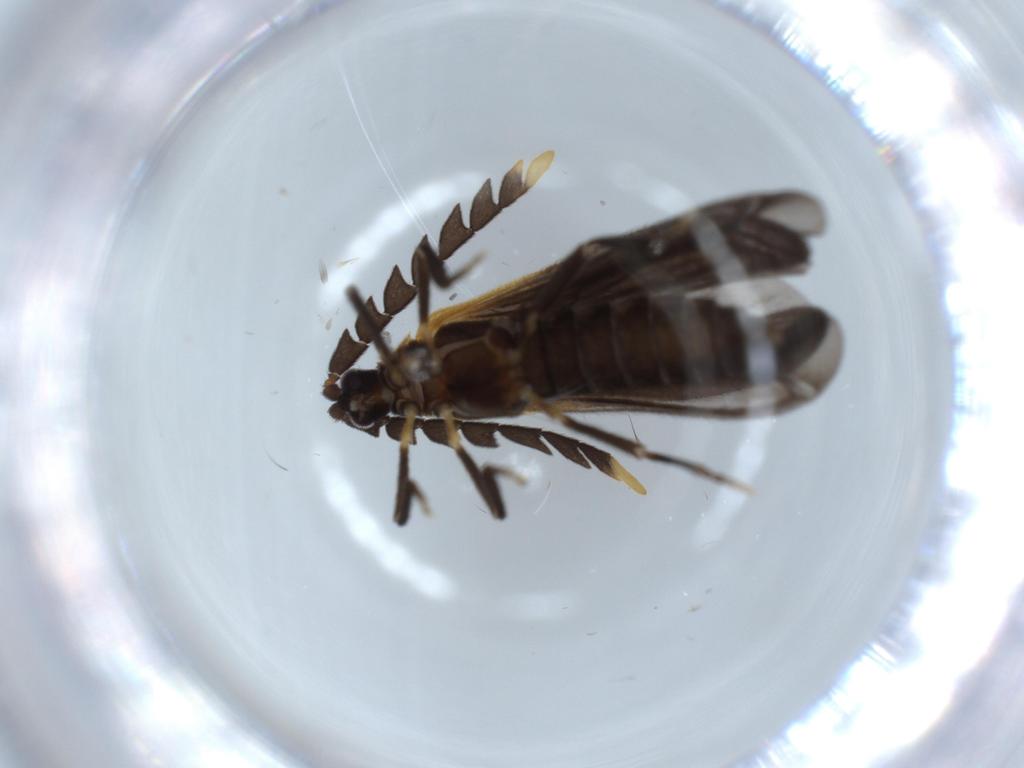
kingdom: Animalia
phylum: Arthropoda
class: Insecta
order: Coleoptera
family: Lycidae
